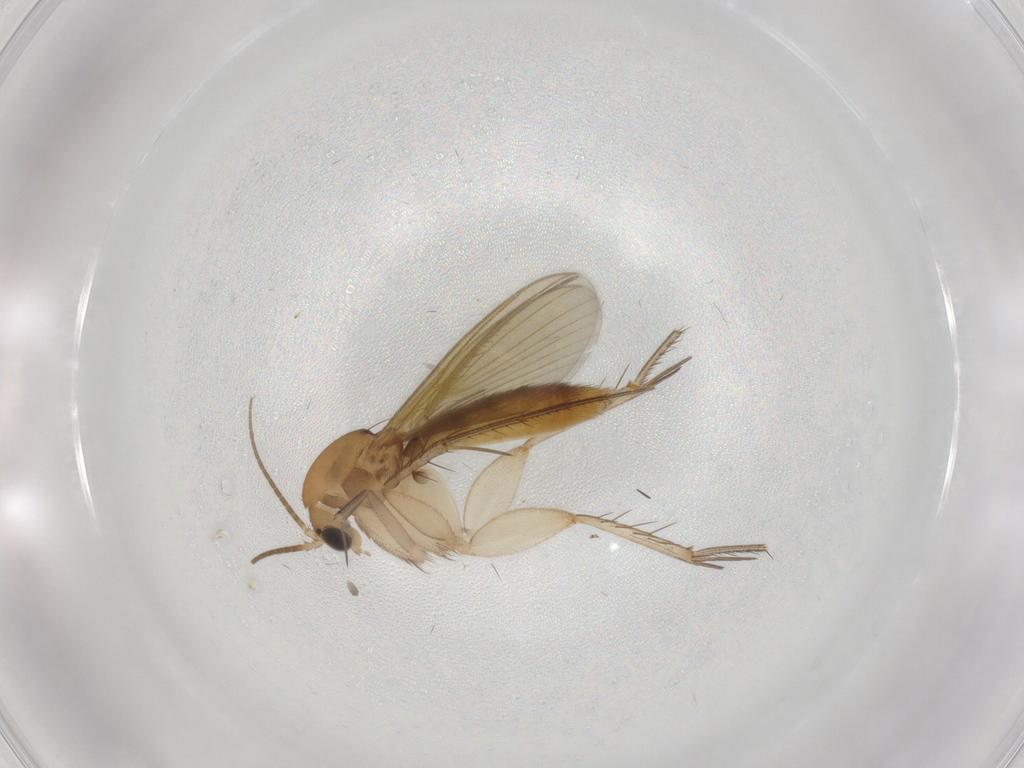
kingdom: Animalia
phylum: Arthropoda
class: Insecta
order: Diptera
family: Mycetophilidae
